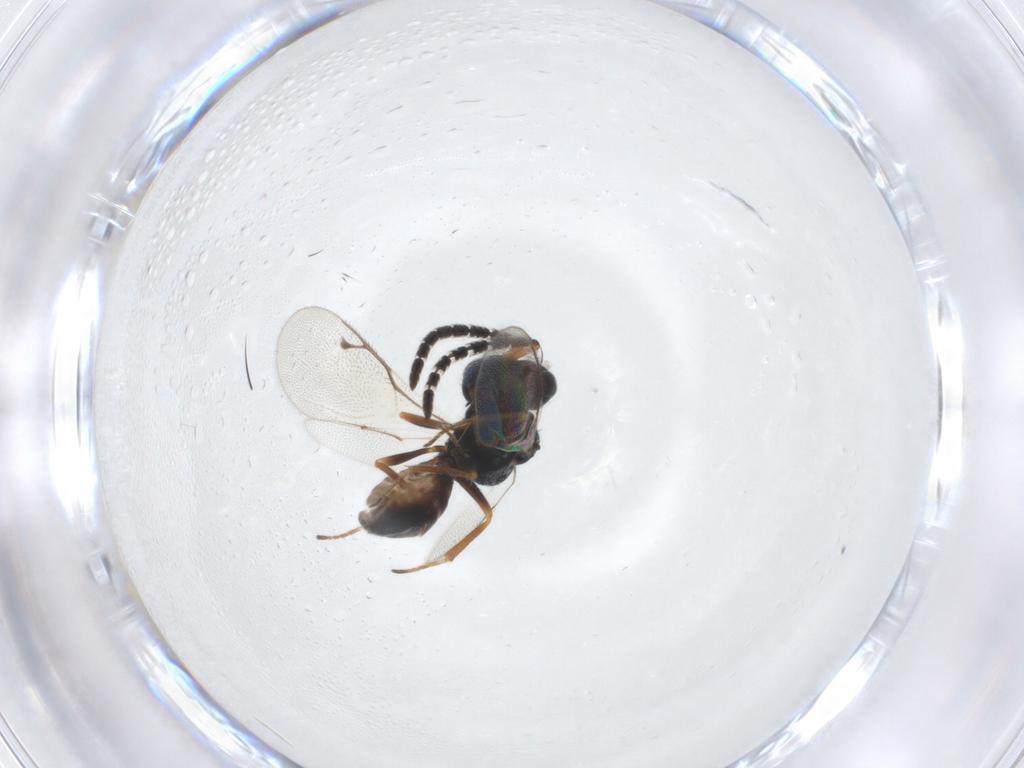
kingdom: Animalia
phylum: Arthropoda
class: Insecta
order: Hymenoptera
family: Pteromalidae
